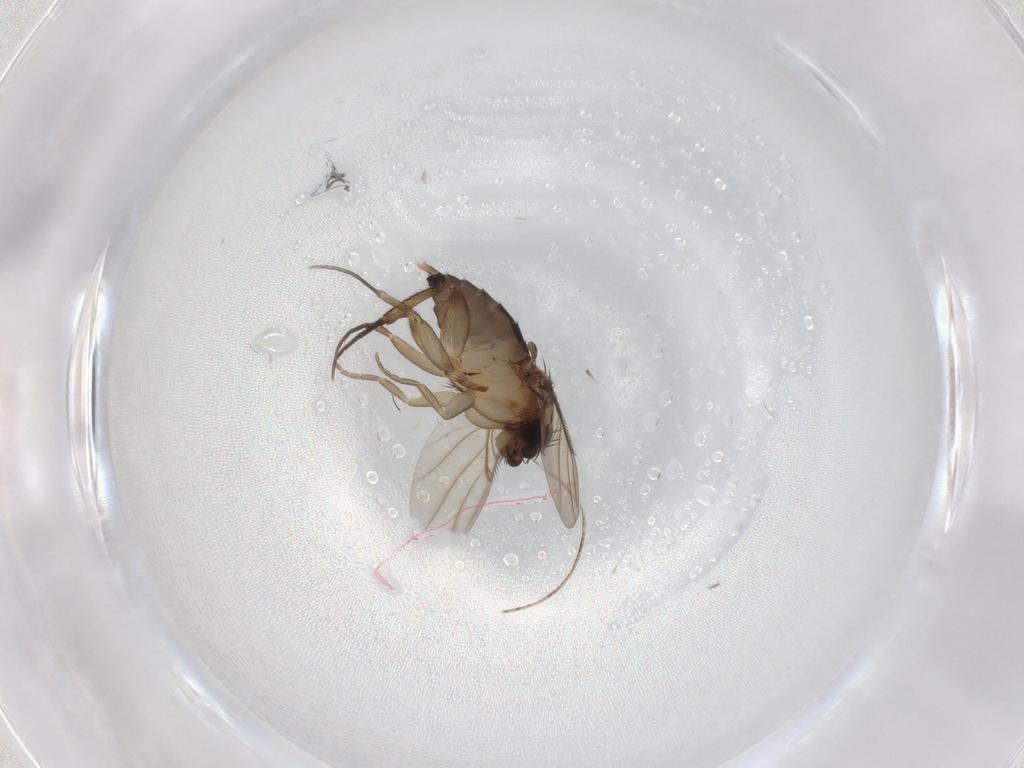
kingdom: Animalia
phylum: Arthropoda
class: Insecta
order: Diptera
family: Phoridae
